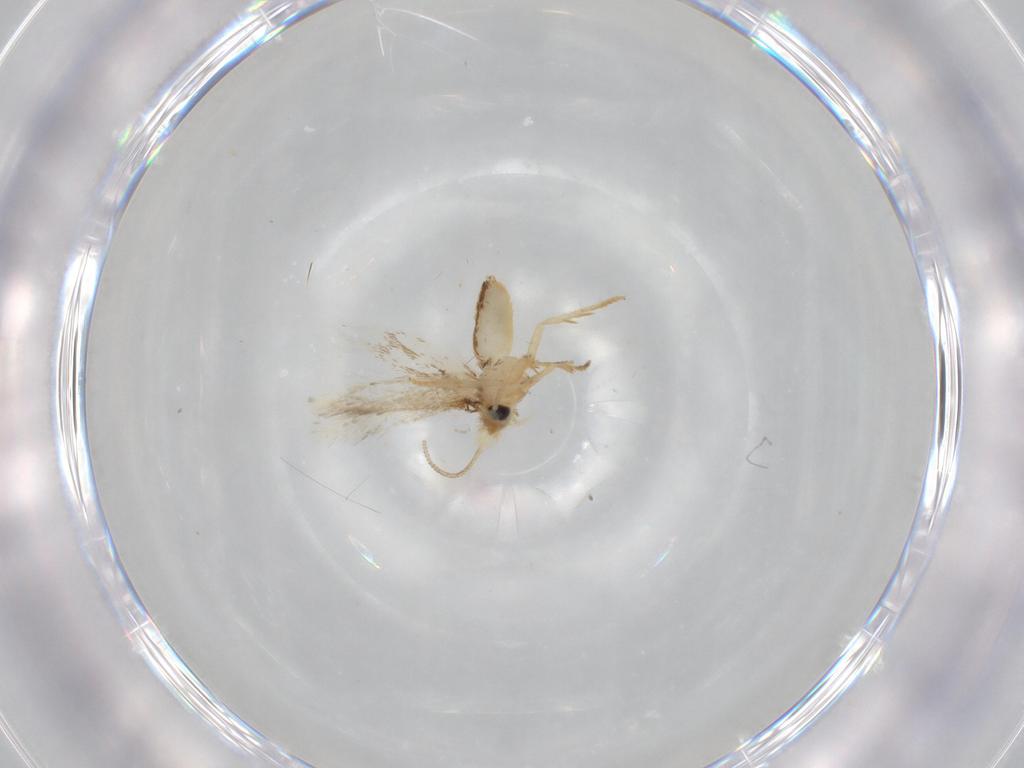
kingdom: Animalia
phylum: Arthropoda
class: Insecta
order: Lepidoptera
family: Nepticulidae
